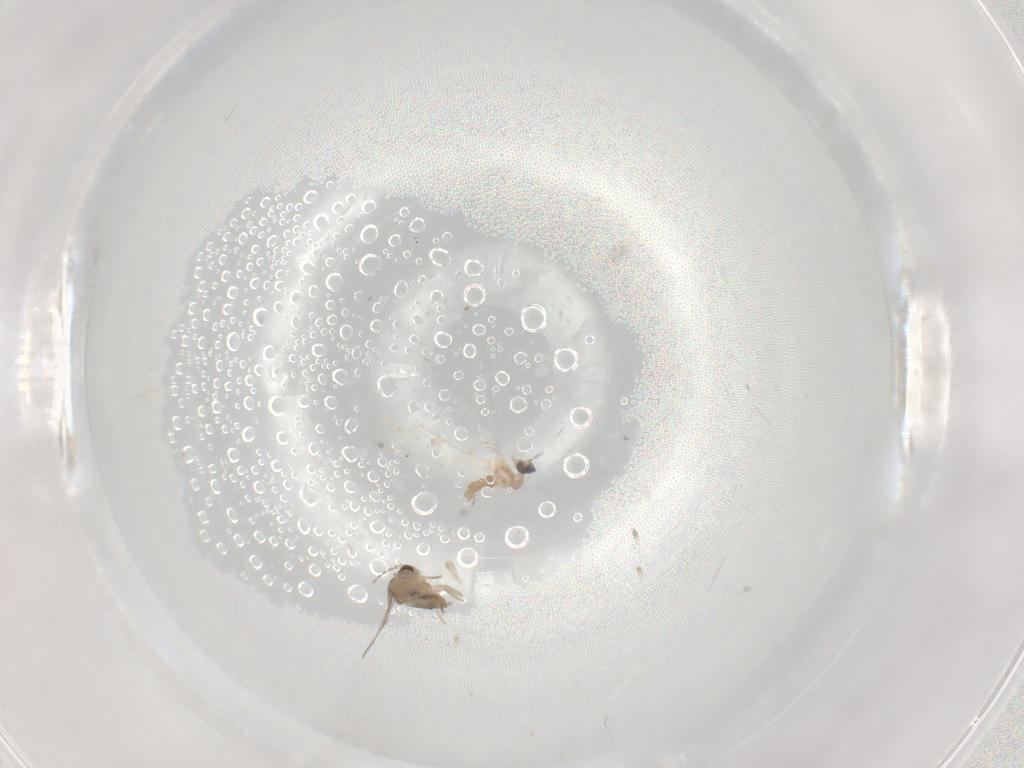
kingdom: Animalia
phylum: Arthropoda
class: Insecta
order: Diptera
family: Cecidomyiidae
